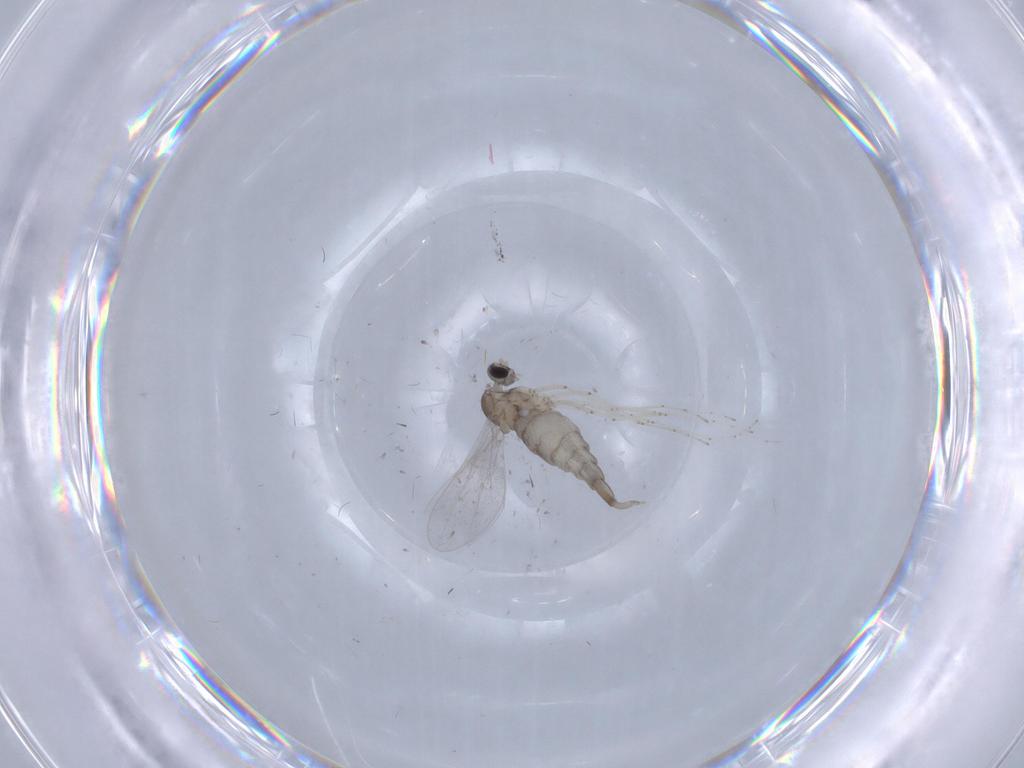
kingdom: Animalia
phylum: Arthropoda
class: Insecta
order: Diptera
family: Cecidomyiidae
